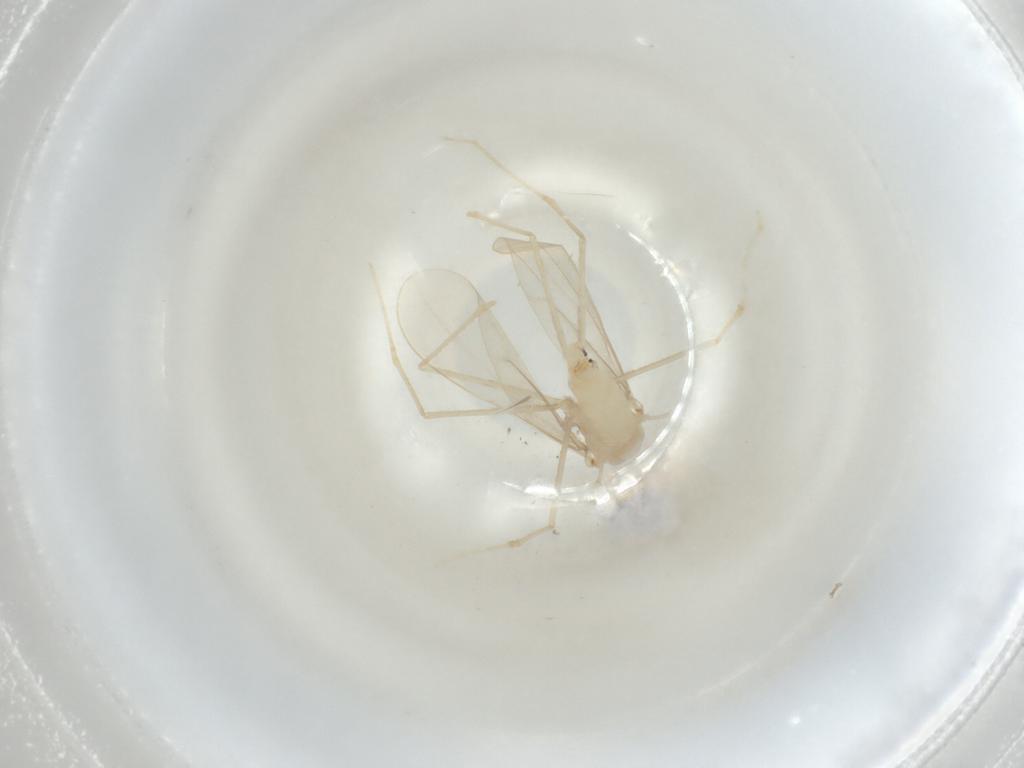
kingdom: Animalia
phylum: Arthropoda
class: Insecta
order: Diptera
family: Cecidomyiidae
